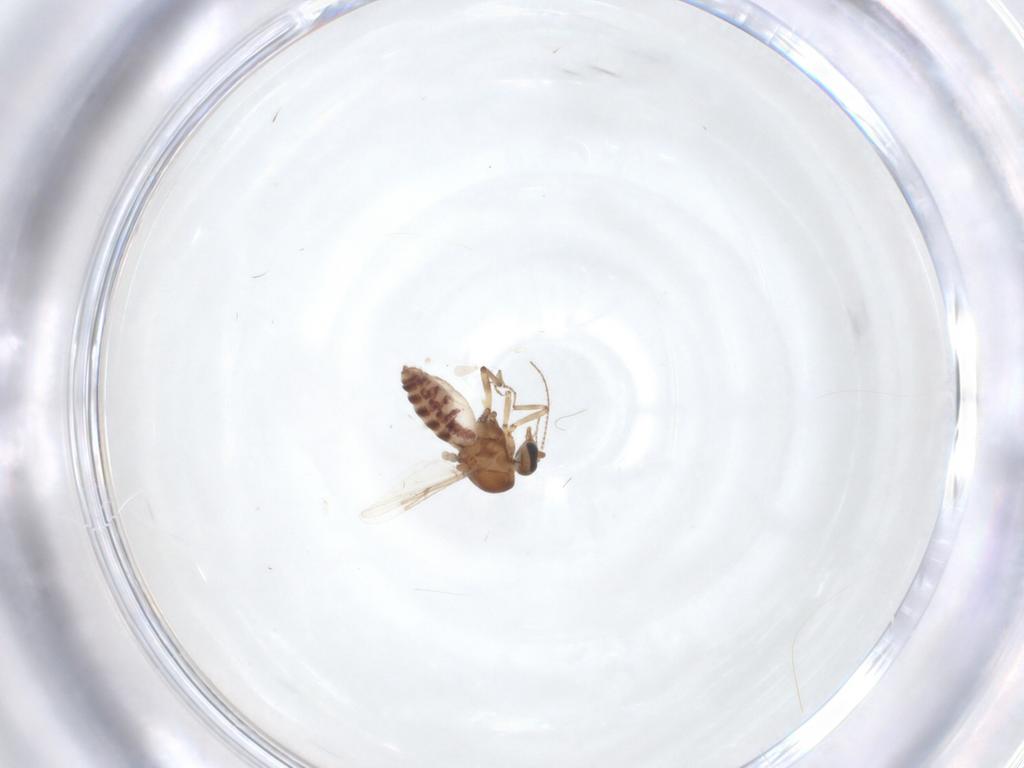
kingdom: Animalia
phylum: Arthropoda
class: Insecta
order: Diptera
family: Ceratopogonidae
